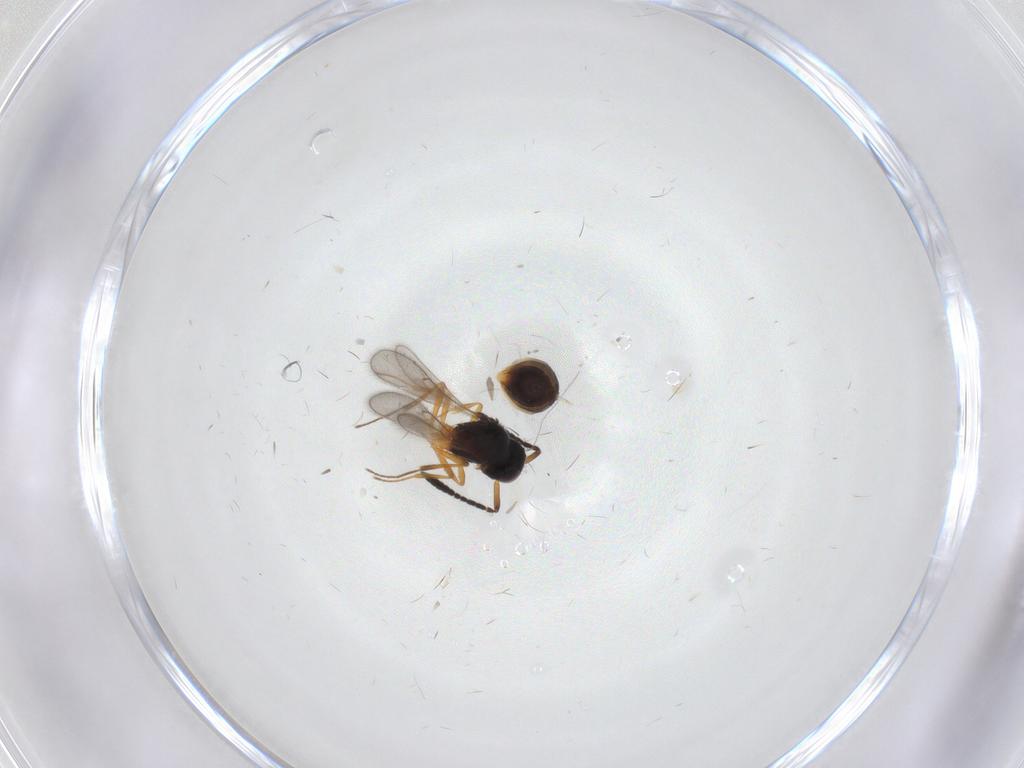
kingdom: Animalia
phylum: Arthropoda
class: Insecta
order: Hymenoptera
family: Scelionidae
